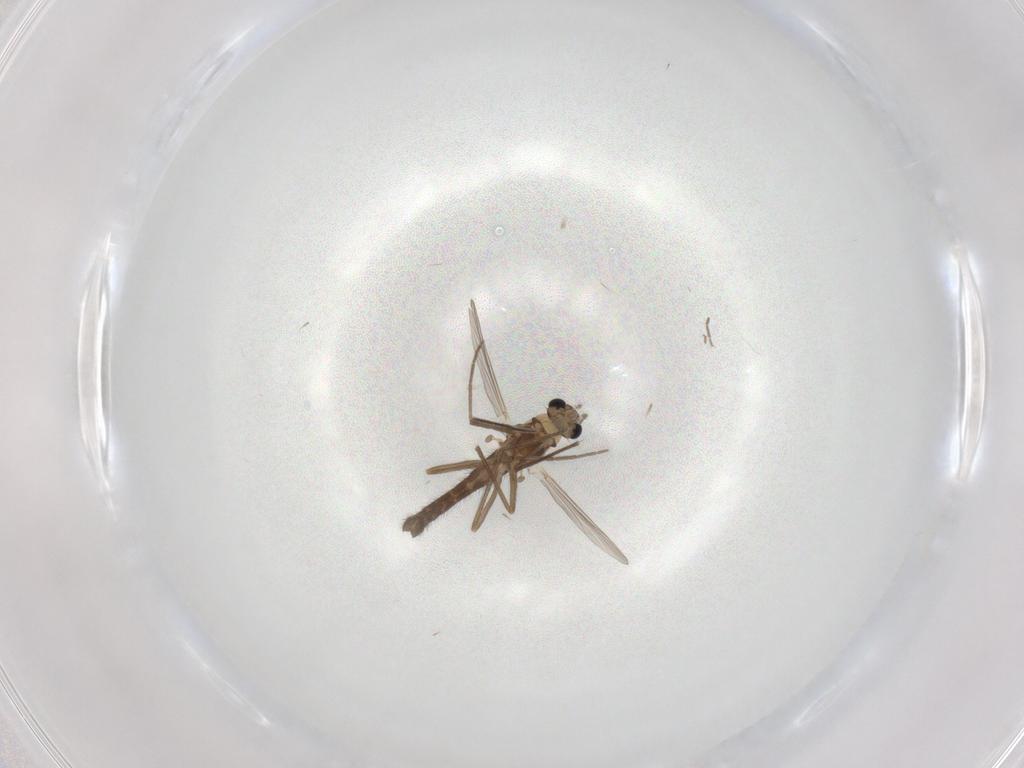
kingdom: Animalia
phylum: Arthropoda
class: Insecta
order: Diptera
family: Chironomidae
